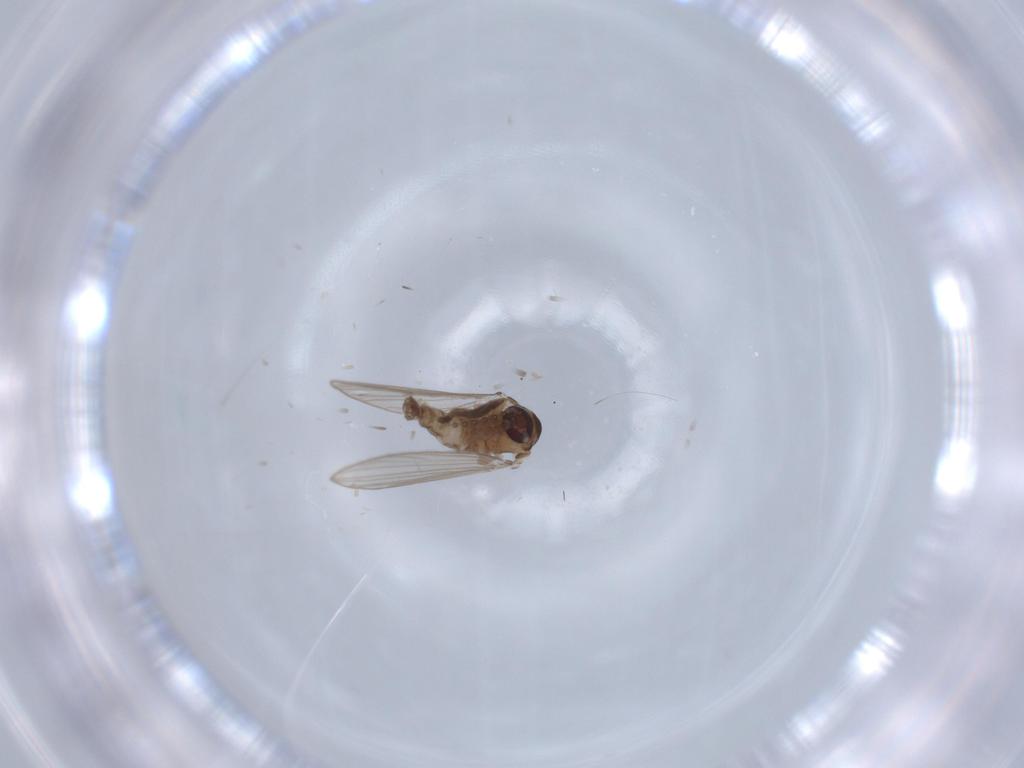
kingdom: Animalia
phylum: Arthropoda
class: Insecta
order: Diptera
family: Psychodidae
